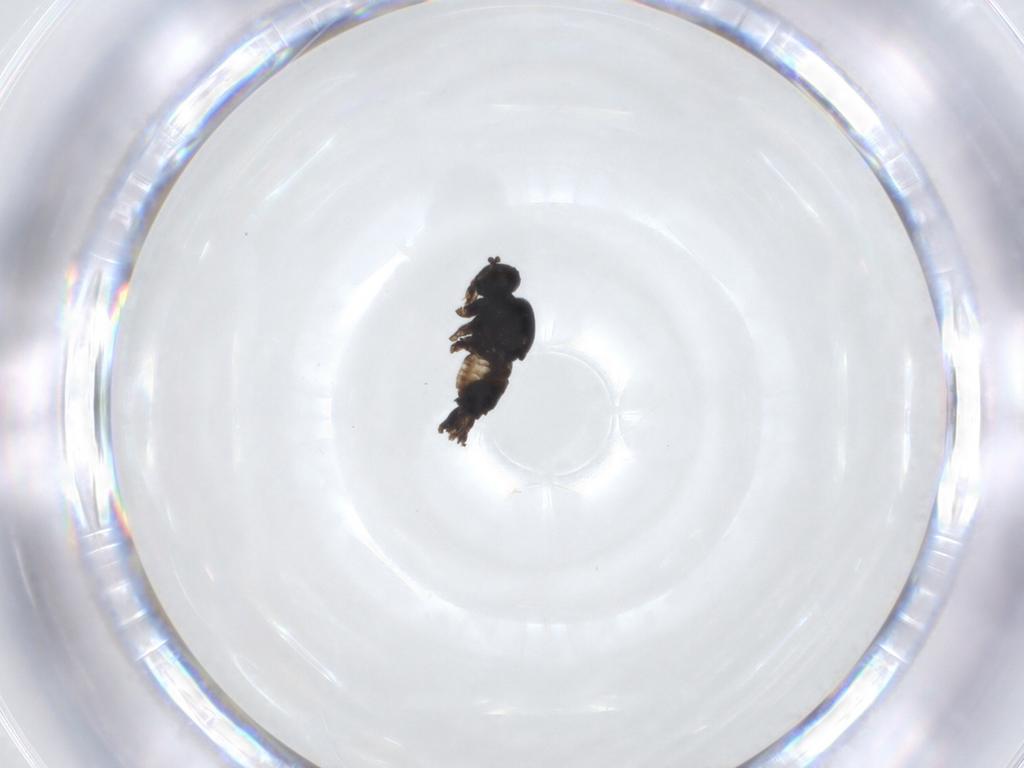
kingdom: Animalia
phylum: Arthropoda
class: Insecta
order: Diptera
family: Hybotidae
